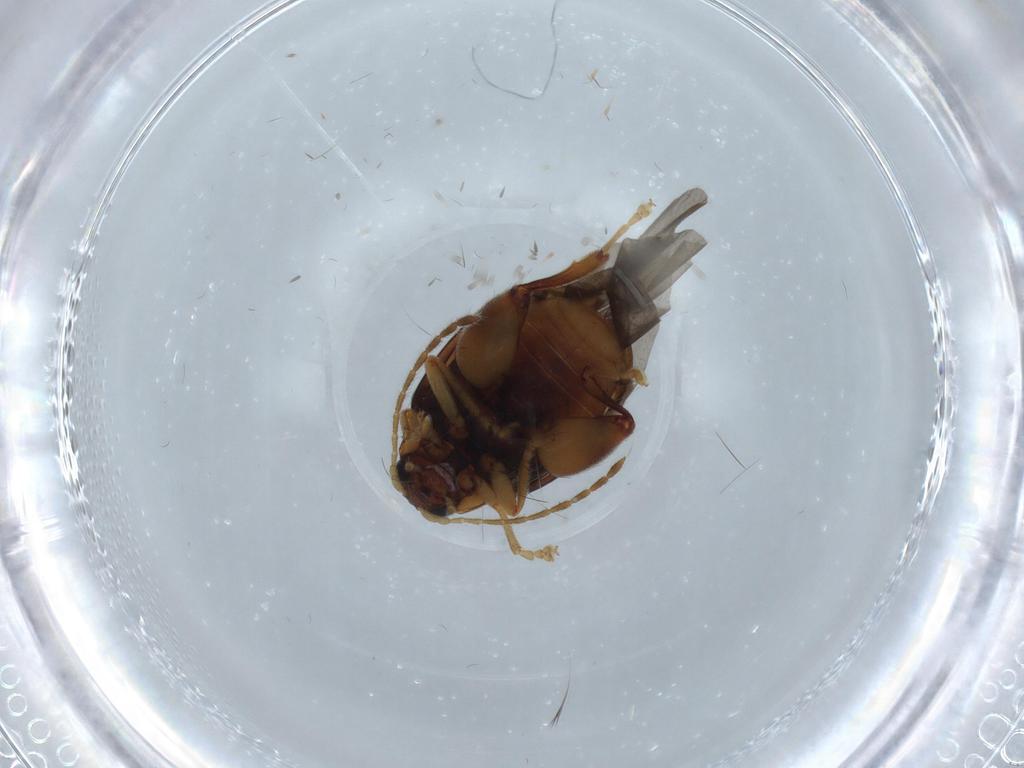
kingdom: Animalia
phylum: Arthropoda
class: Insecta
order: Coleoptera
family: Chrysomelidae
